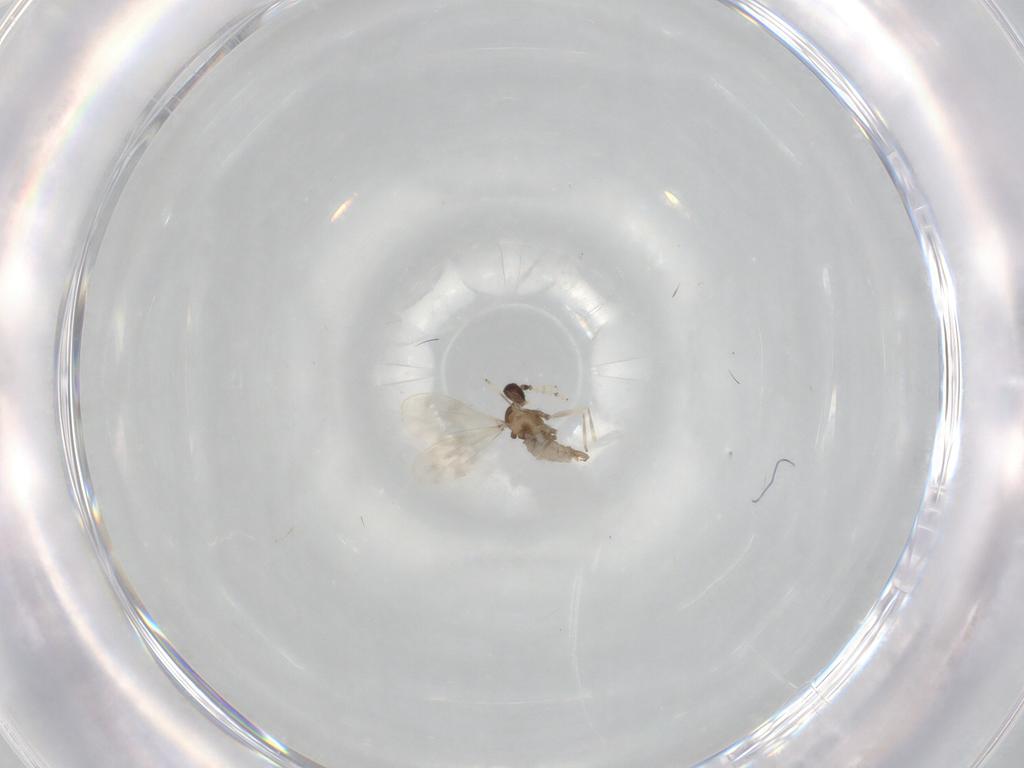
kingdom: Animalia
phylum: Arthropoda
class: Insecta
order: Diptera
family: Cecidomyiidae
